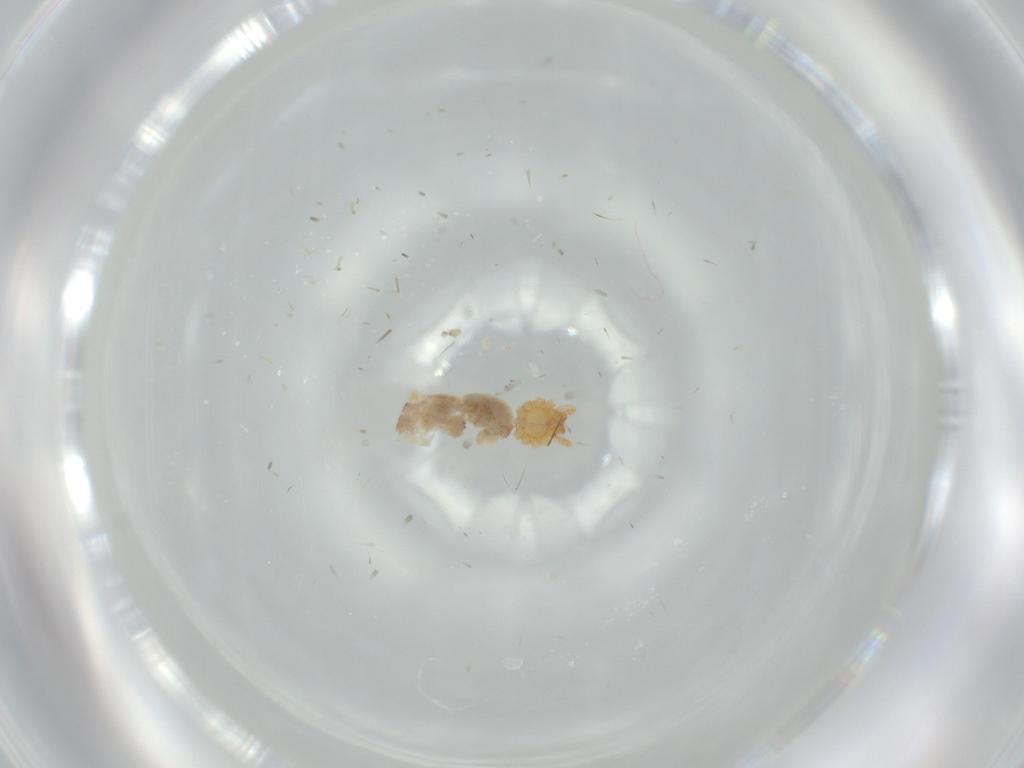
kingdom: Animalia
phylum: Arthropoda
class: Arachnida
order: Araneae
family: Ochyroceratidae
